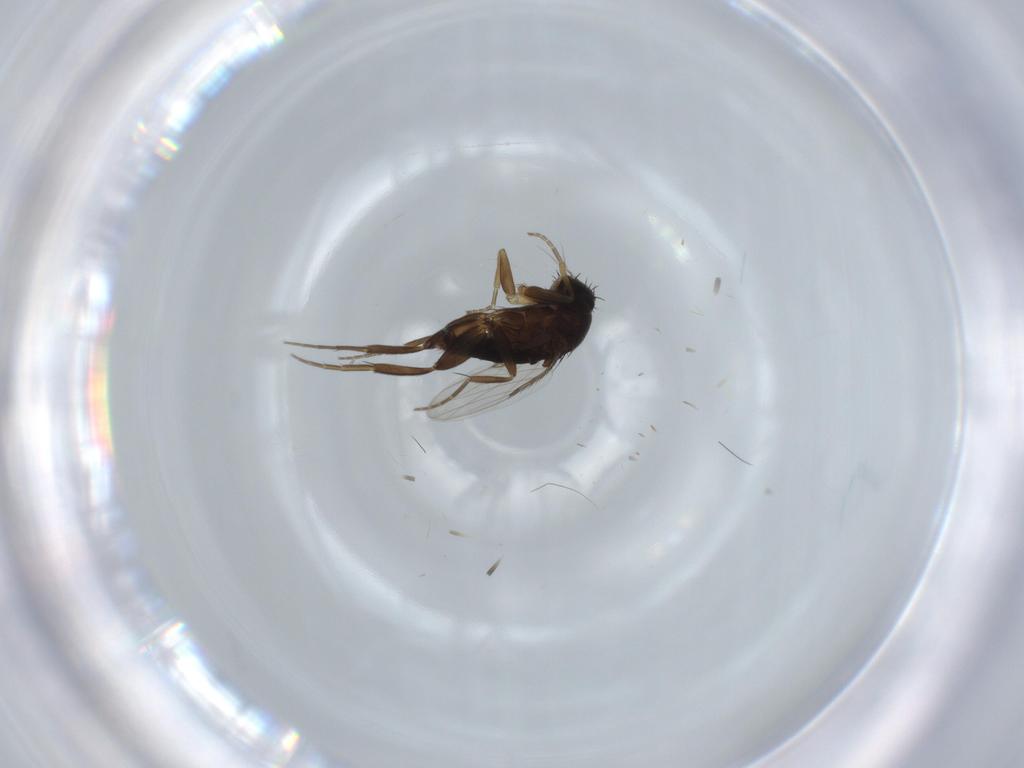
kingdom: Animalia
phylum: Arthropoda
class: Insecta
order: Diptera
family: Phoridae
